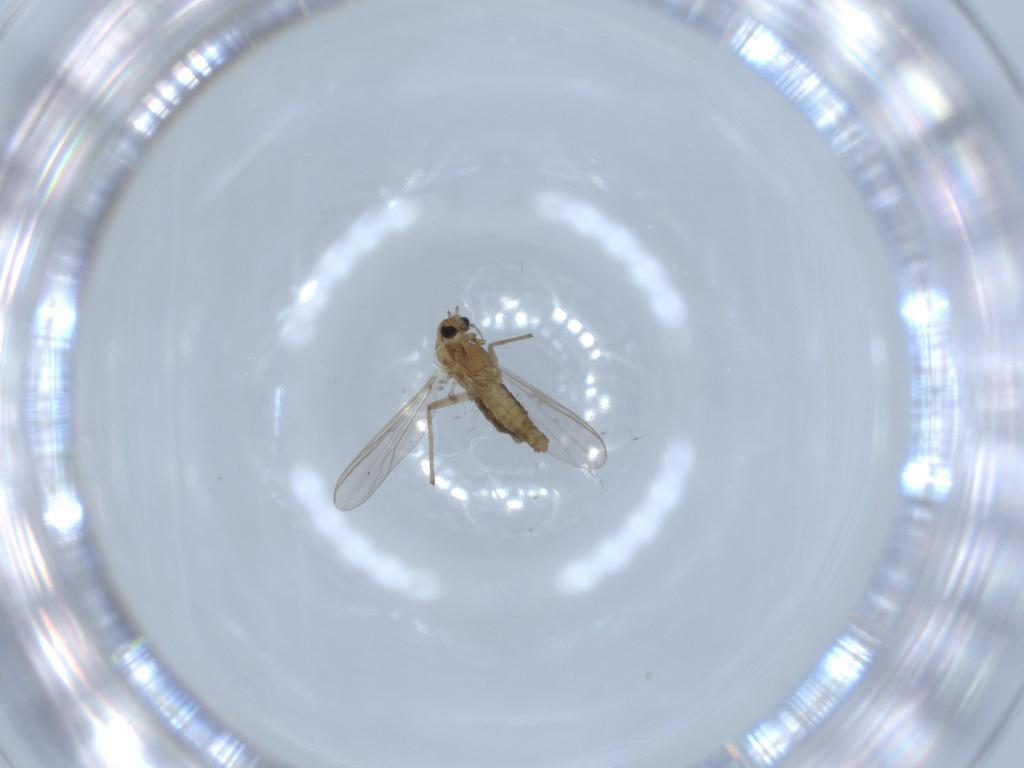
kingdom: Animalia
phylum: Arthropoda
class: Insecta
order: Diptera
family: Chironomidae
